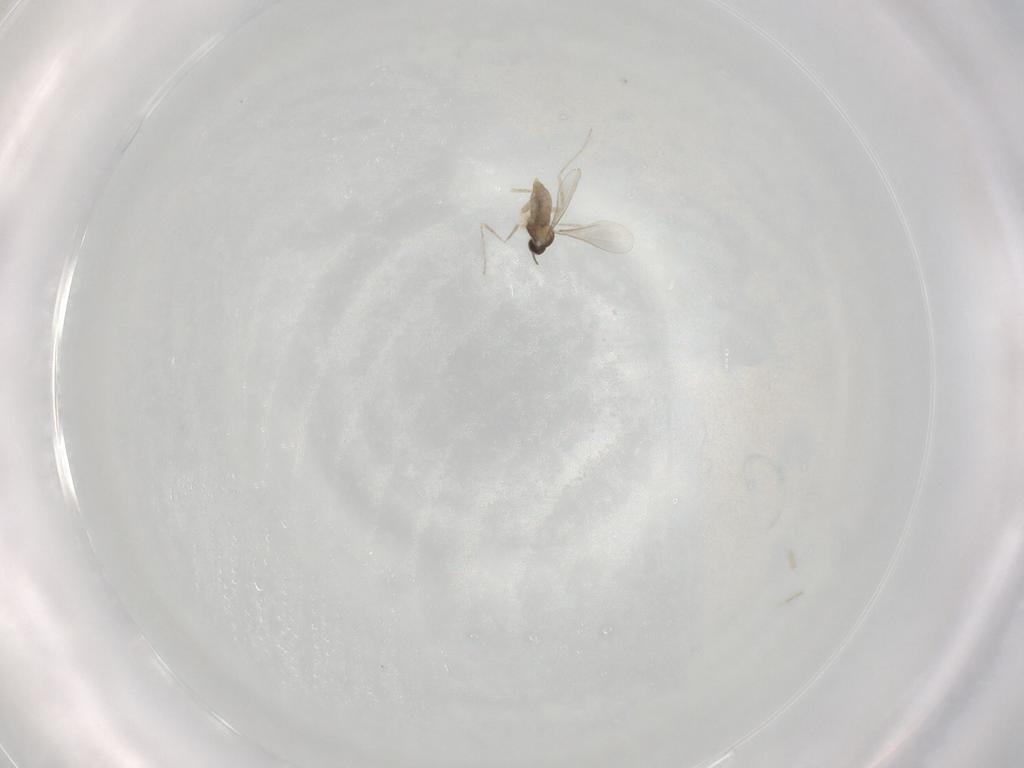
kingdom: Animalia
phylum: Arthropoda
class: Insecta
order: Diptera
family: Chironomidae
